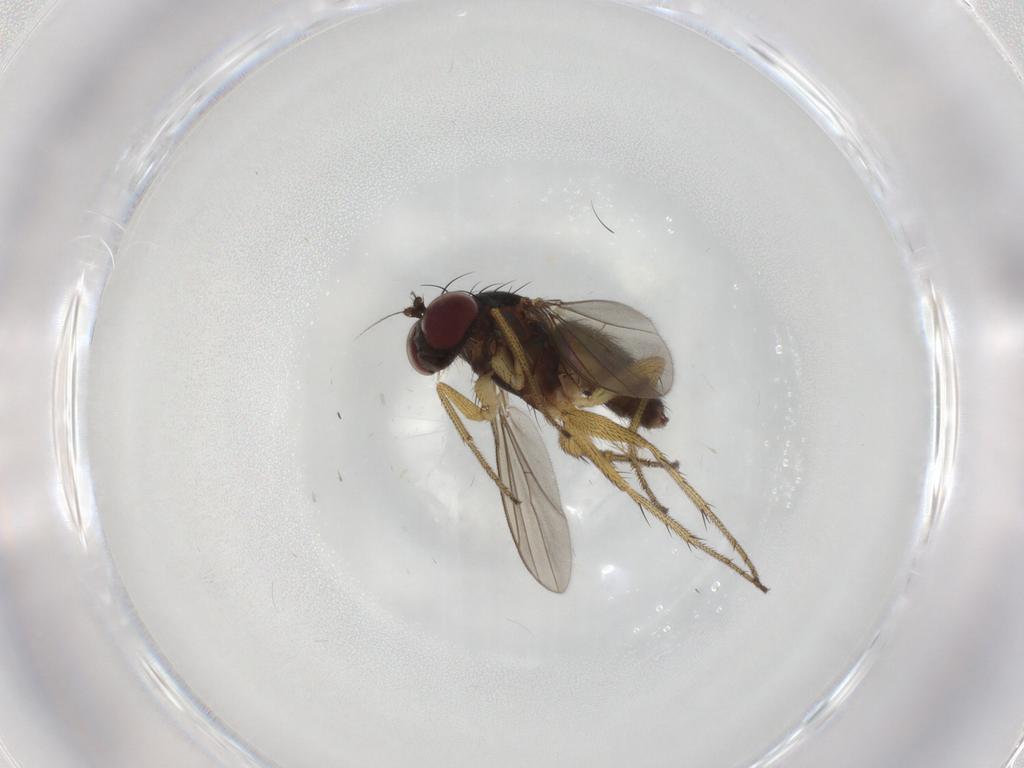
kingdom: Animalia
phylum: Arthropoda
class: Insecta
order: Diptera
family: Dolichopodidae
